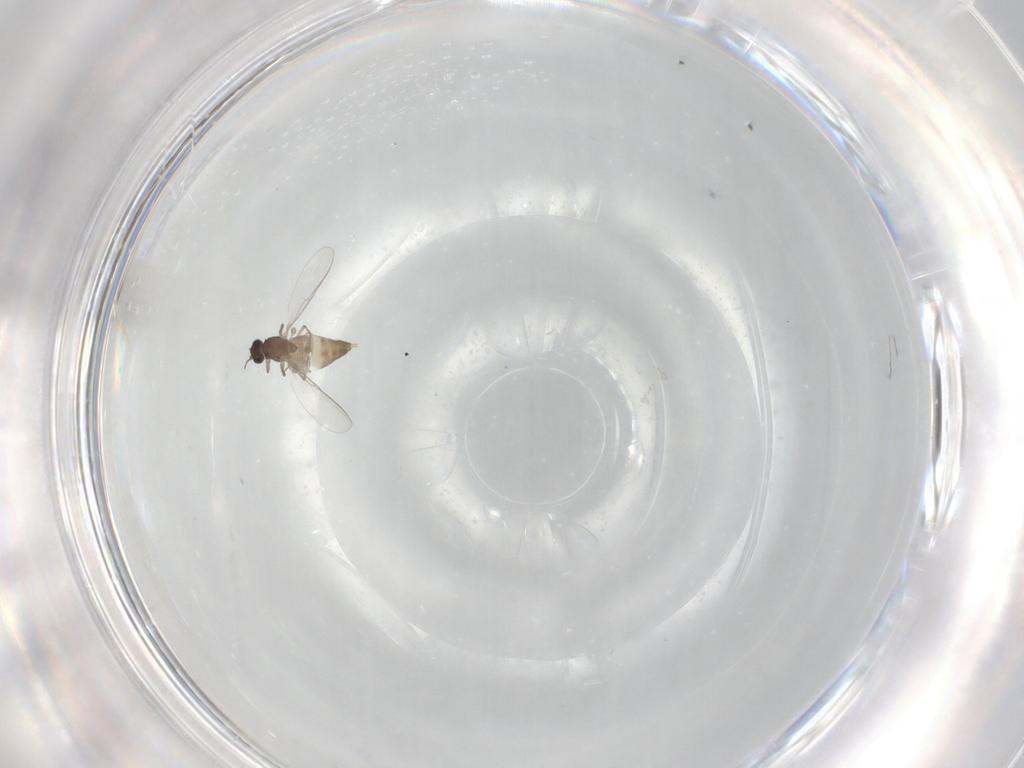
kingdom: Animalia
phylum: Arthropoda
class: Insecta
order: Diptera
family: Chironomidae
